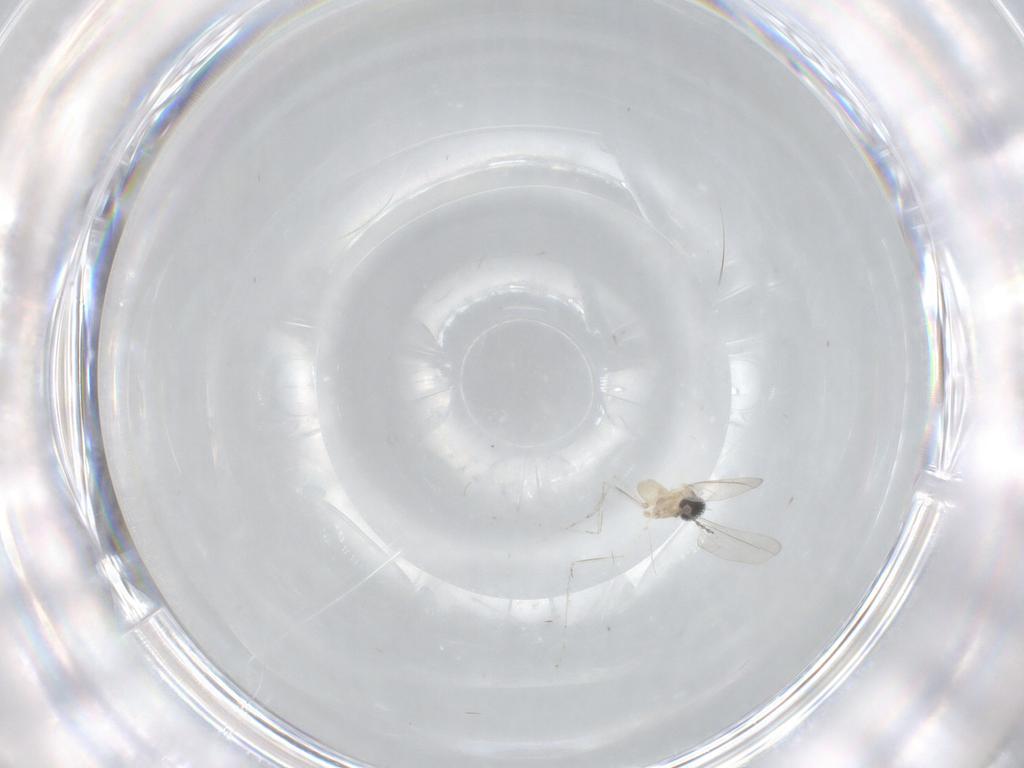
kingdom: Animalia
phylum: Arthropoda
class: Insecta
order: Diptera
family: Cecidomyiidae
